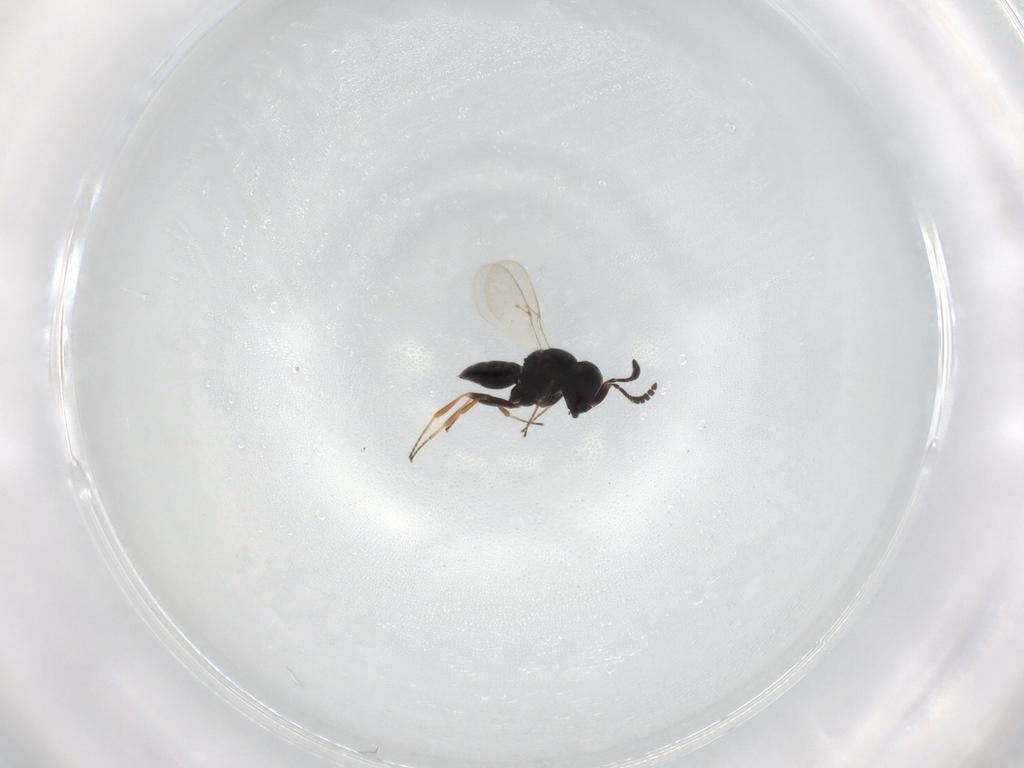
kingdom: Animalia
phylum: Arthropoda
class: Insecta
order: Hymenoptera
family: Scelionidae
